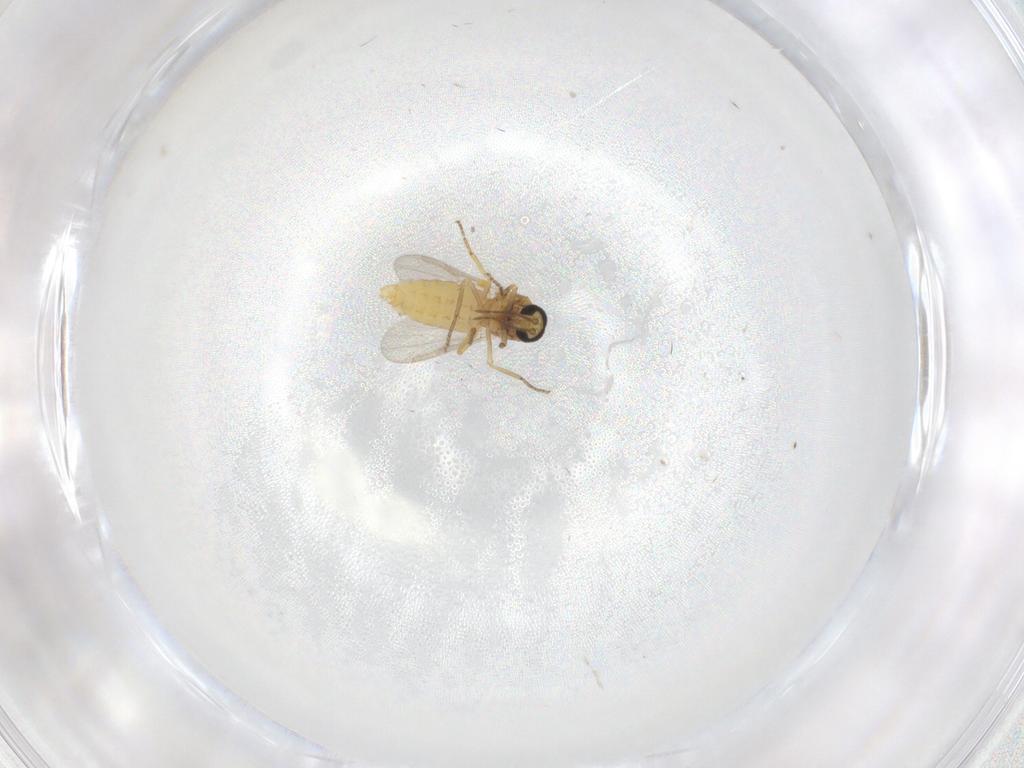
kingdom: Animalia
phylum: Arthropoda
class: Insecta
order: Diptera
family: Ceratopogonidae
